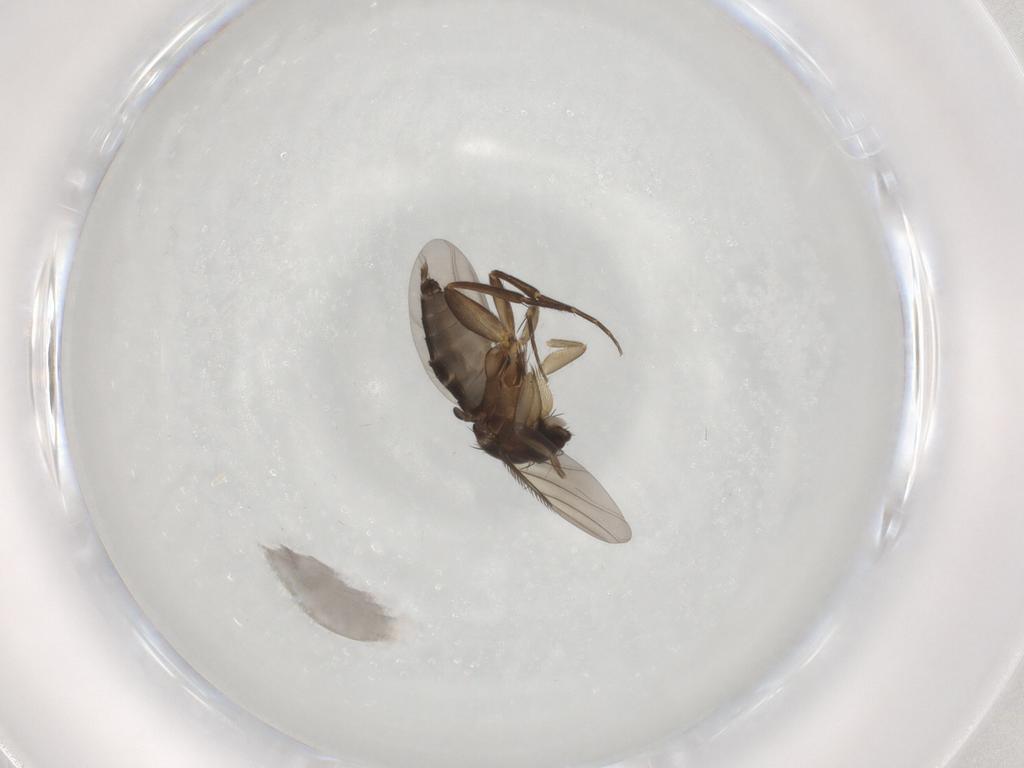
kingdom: Animalia
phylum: Arthropoda
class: Insecta
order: Diptera
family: Phoridae
